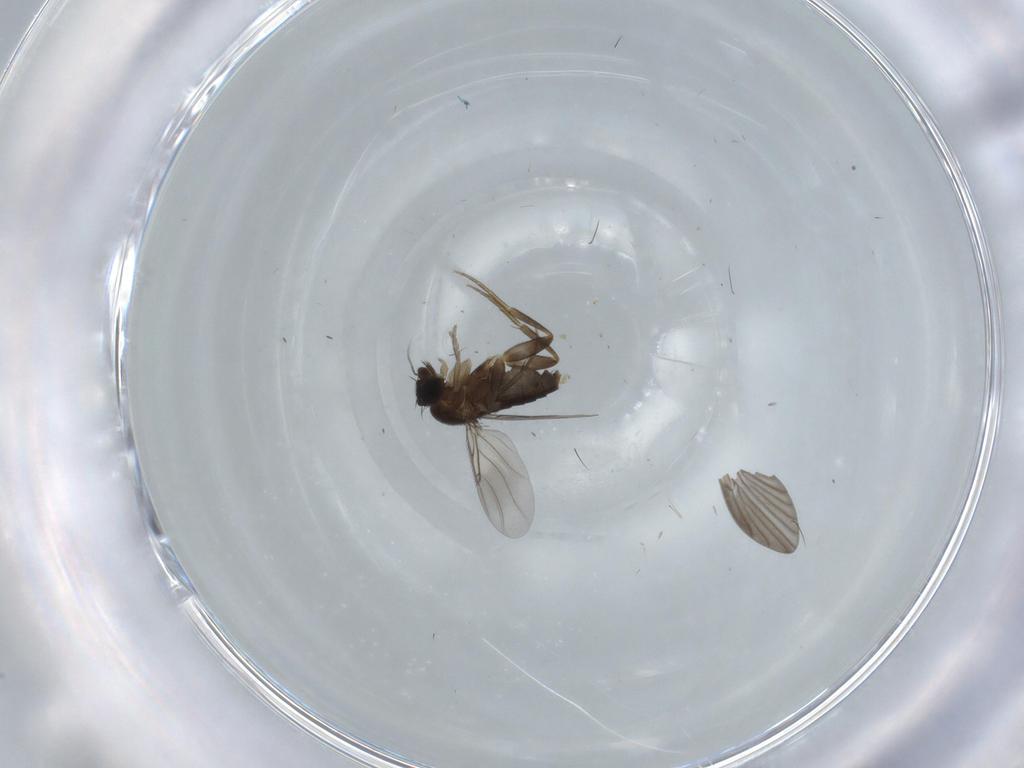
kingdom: Animalia
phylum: Arthropoda
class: Insecta
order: Diptera
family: Phoridae
